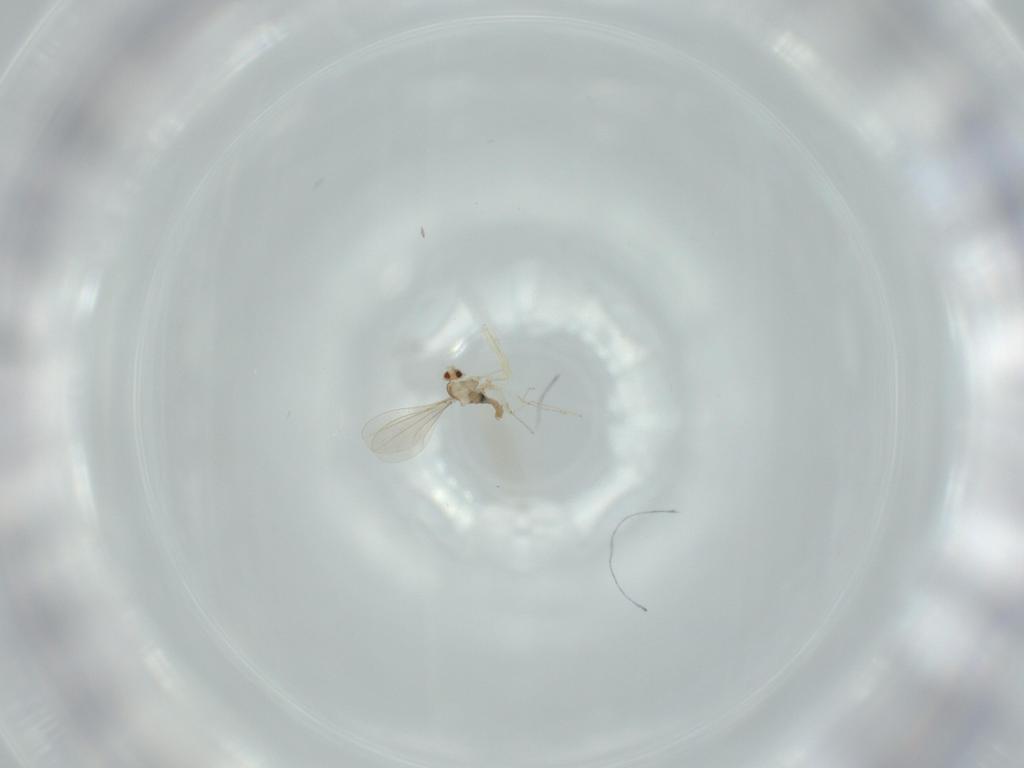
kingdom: Animalia
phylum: Arthropoda
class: Insecta
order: Diptera
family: Cecidomyiidae
